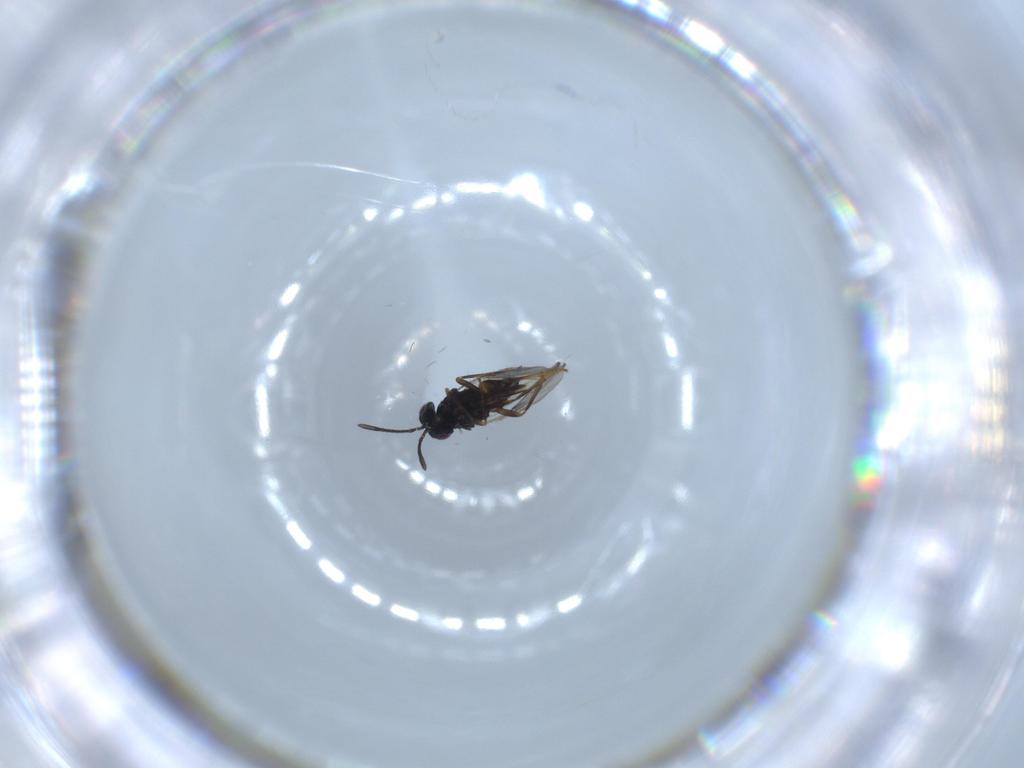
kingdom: Animalia
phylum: Arthropoda
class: Insecta
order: Hymenoptera
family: Encyrtidae
